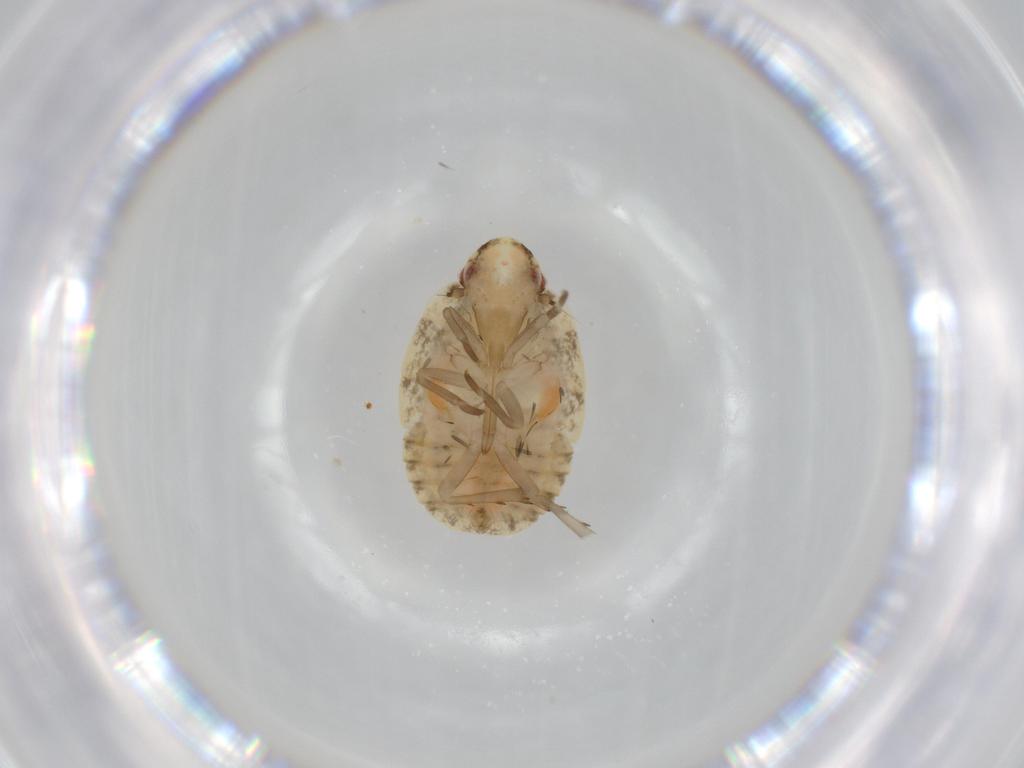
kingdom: Animalia
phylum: Arthropoda
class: Insecta
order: Hemiptera
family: Flatidae
